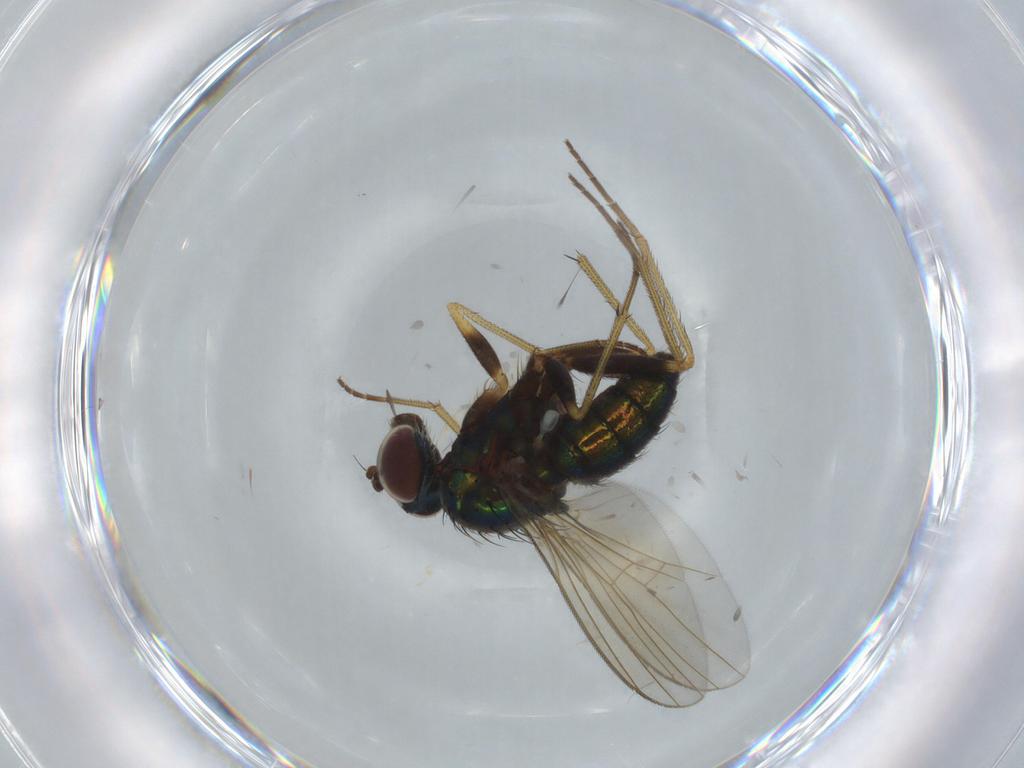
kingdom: Animalia
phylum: Arthropoda
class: Insecta
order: Diptera
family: Dolichopodidae
